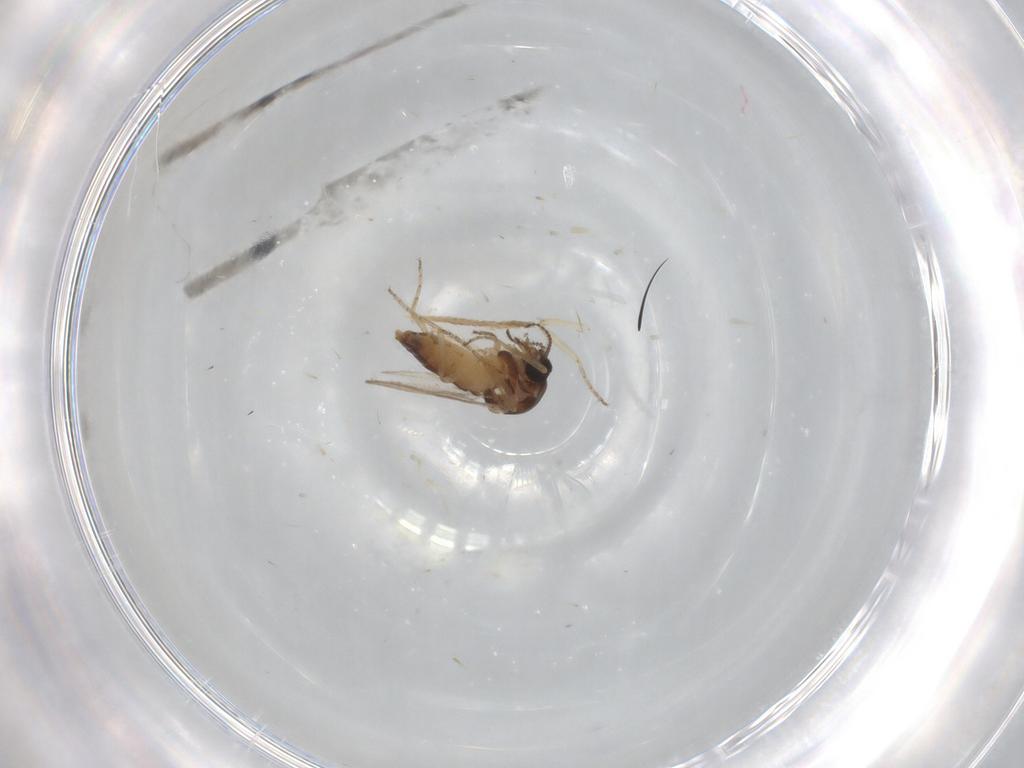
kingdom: Animalia
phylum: Arthropoda
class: Insecta
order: Diptera
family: Ceratopogonidae
